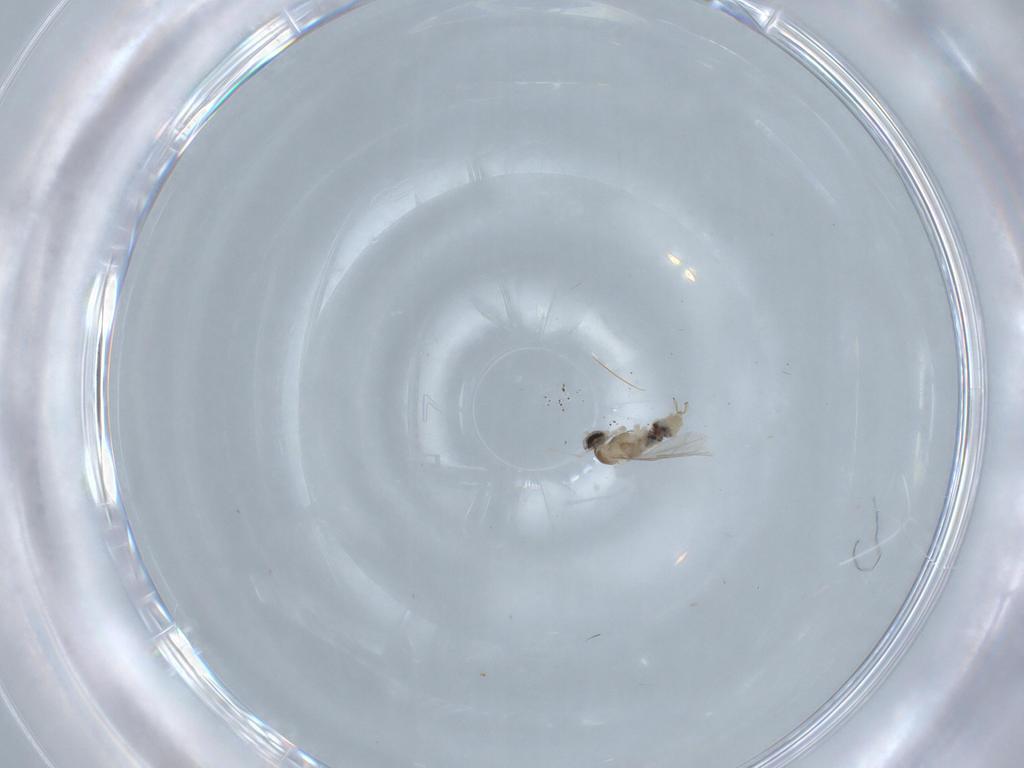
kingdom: Animalia
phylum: Arthropoda
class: Insecta
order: Diptera
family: Cecidomyiidae
